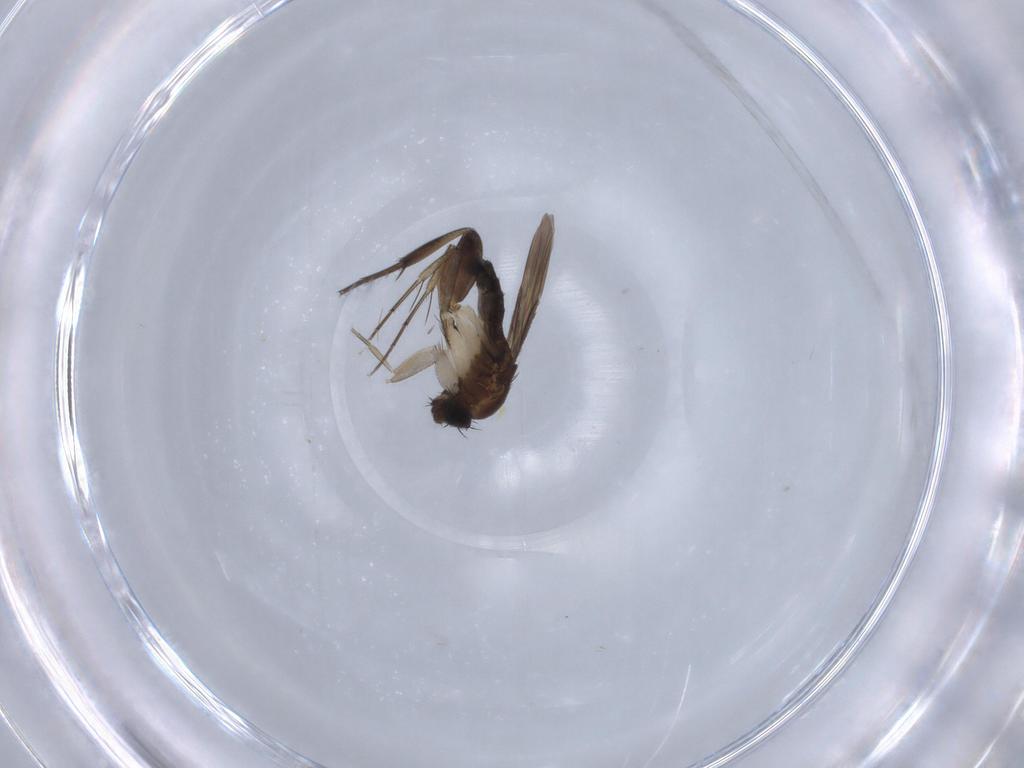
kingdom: Animalia
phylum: Arthropoda
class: Insecta
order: Diptera
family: Phoridae
